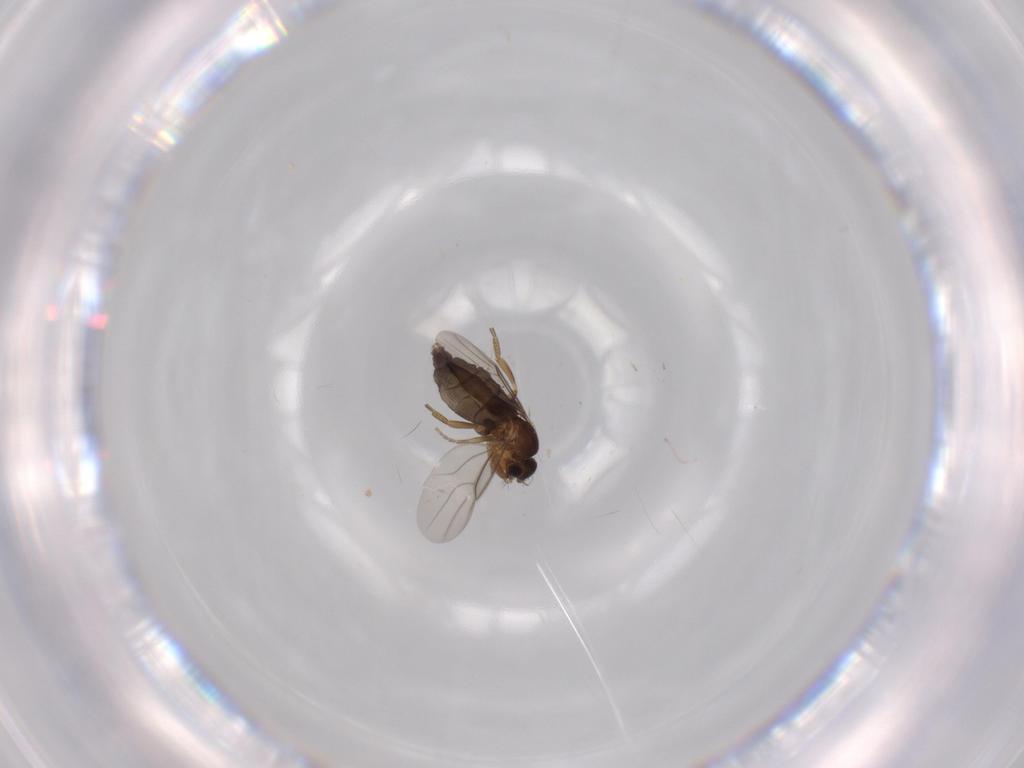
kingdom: Animalia
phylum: Arthropoda
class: Insecta
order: Diptera
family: Phoridae
